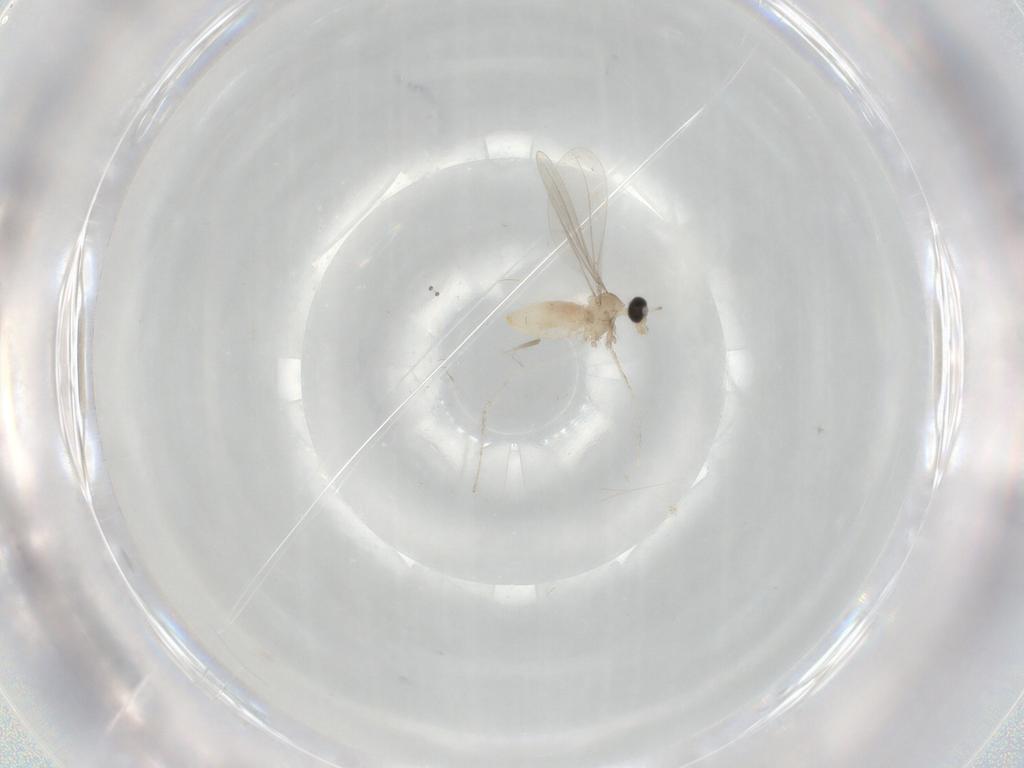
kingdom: Animalia
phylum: Arthropoda
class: Insecta
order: Diptera
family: Cecidomyiidae
